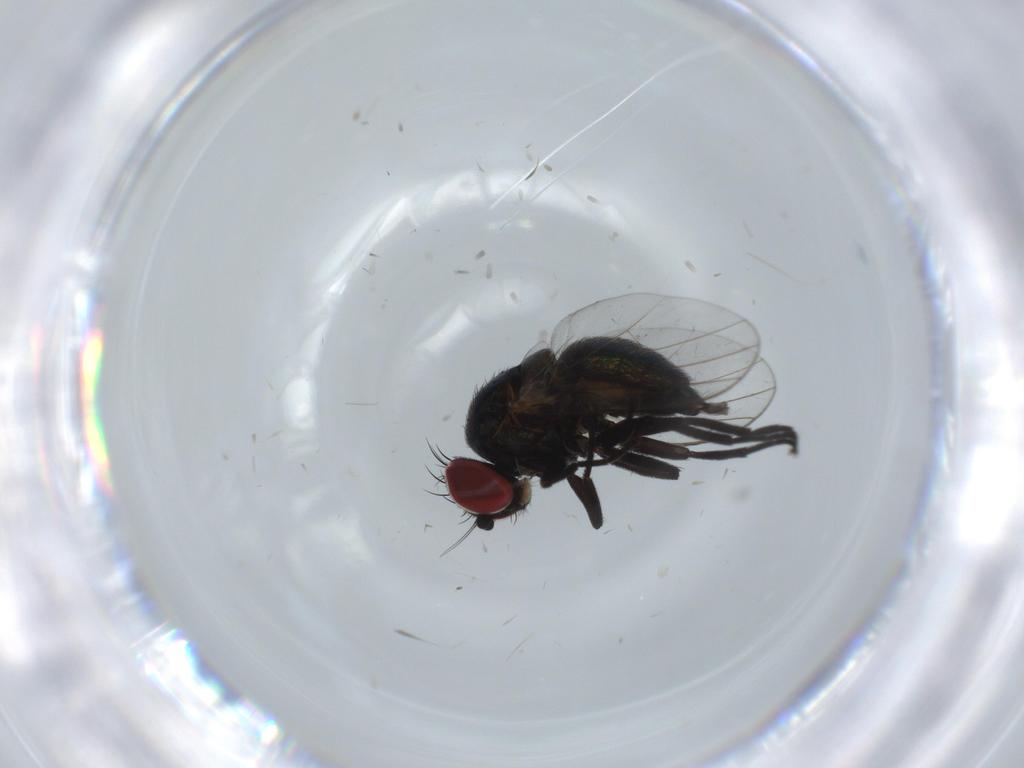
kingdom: Animalia
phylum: Arthropoda
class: Insecta
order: Diptera
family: Agromyzidae
